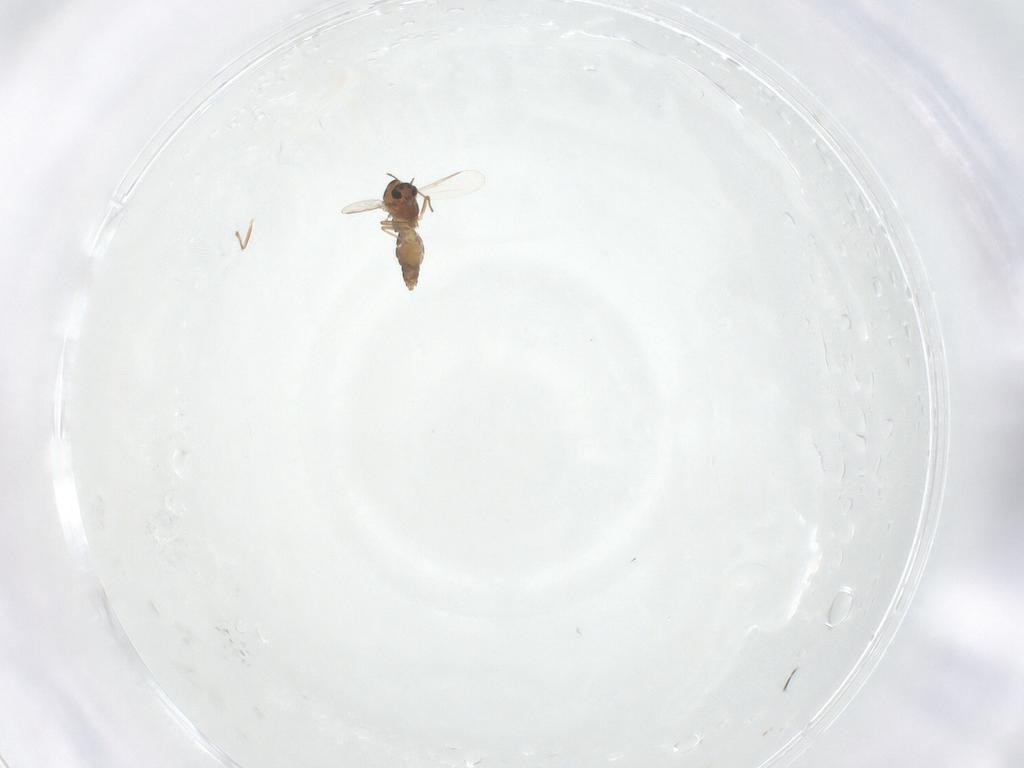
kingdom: Animalia
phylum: Arthropoda
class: Insecta
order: Diptera
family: Chironomidae
